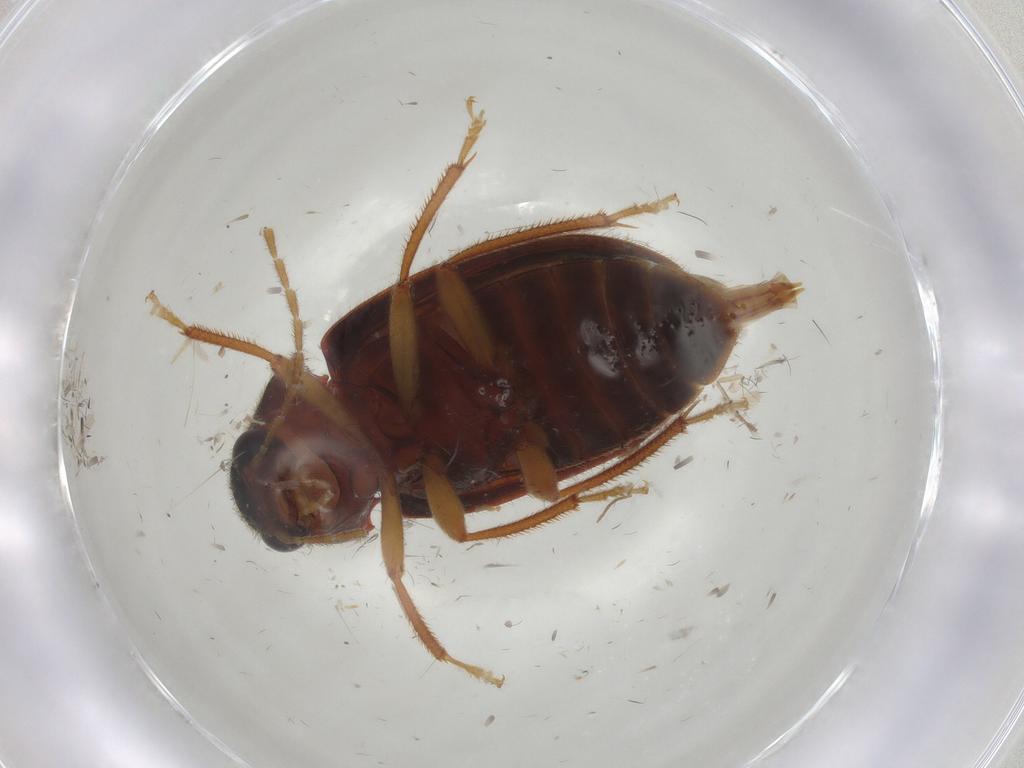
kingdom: Animalia
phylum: Arthropoda
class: Insecta
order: Coleoptera
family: Ptilodactylidae
